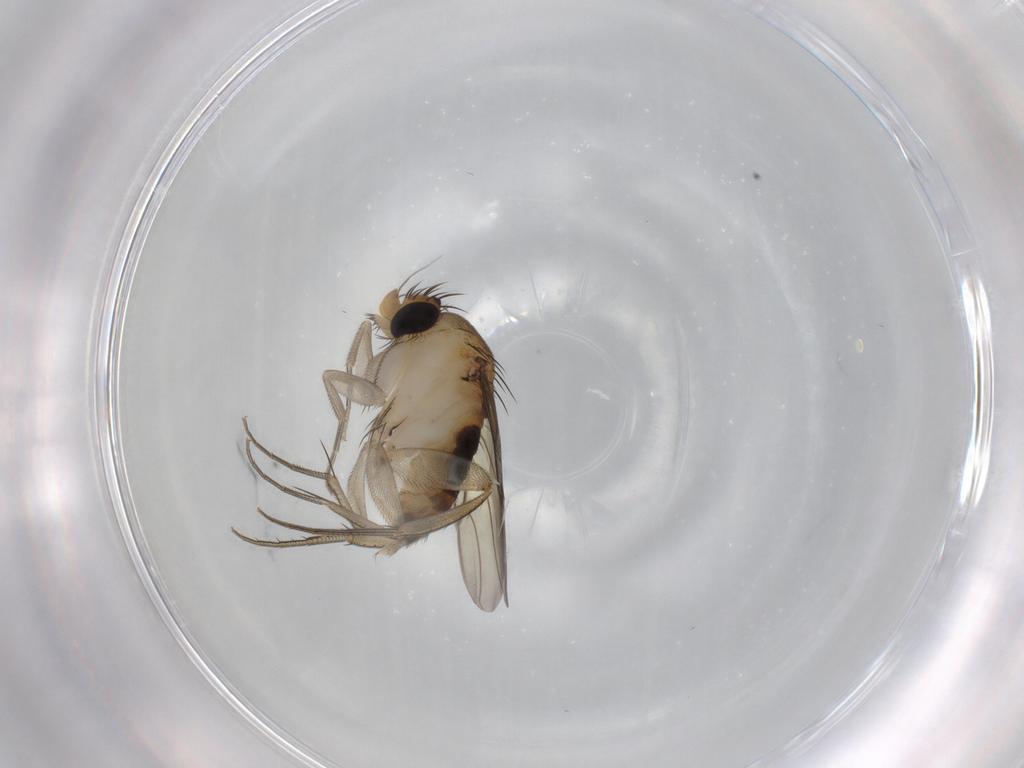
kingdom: Animalia
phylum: Arthropoda
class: Insecta
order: Diptera
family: Phoridae
